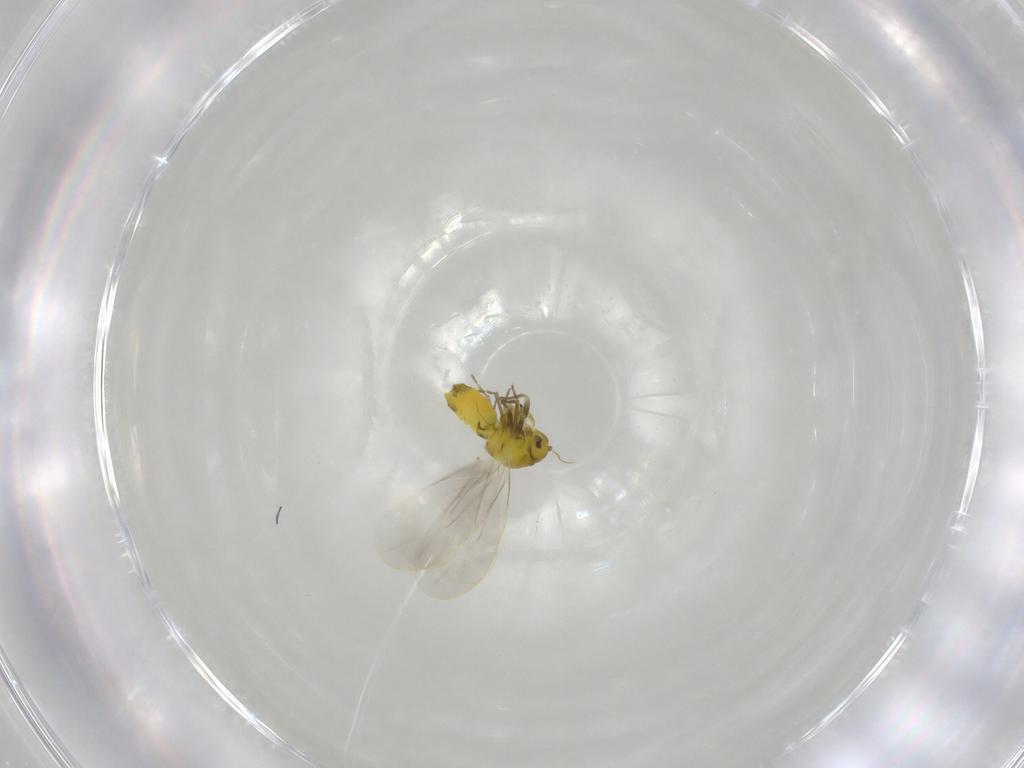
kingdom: Animalia
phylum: Arthropoda
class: Insecta
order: Hemiptera
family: Aleyrodidae
